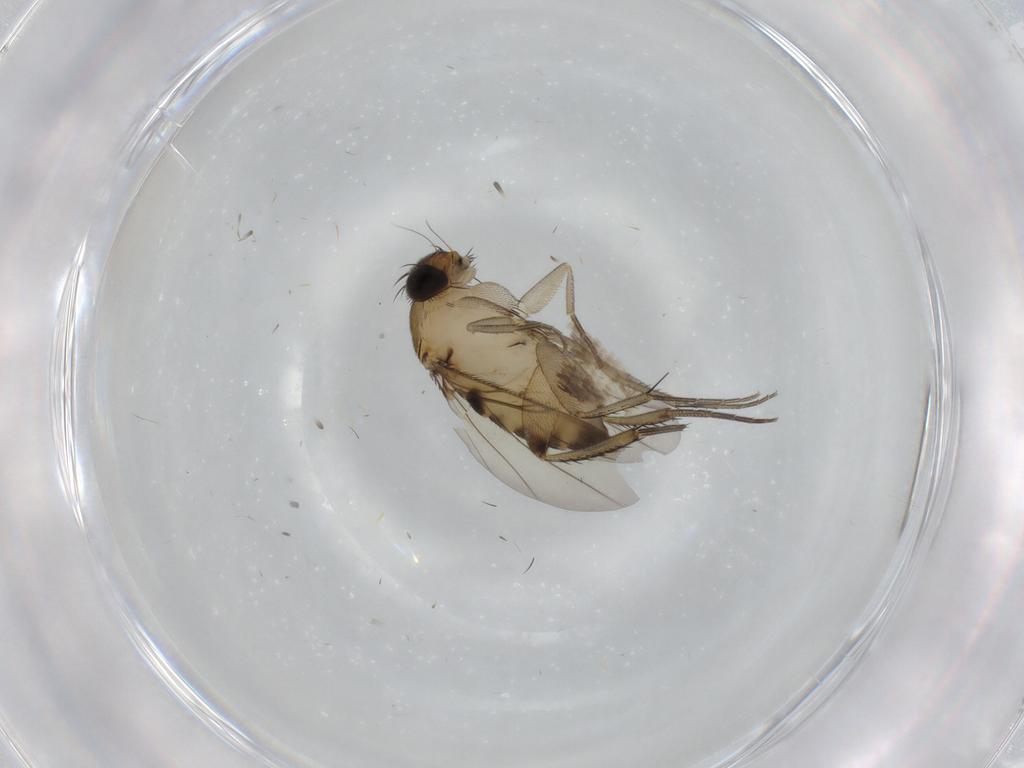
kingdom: Animalia
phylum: Arthropoda
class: Insecta
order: Diptera
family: Phoridae
